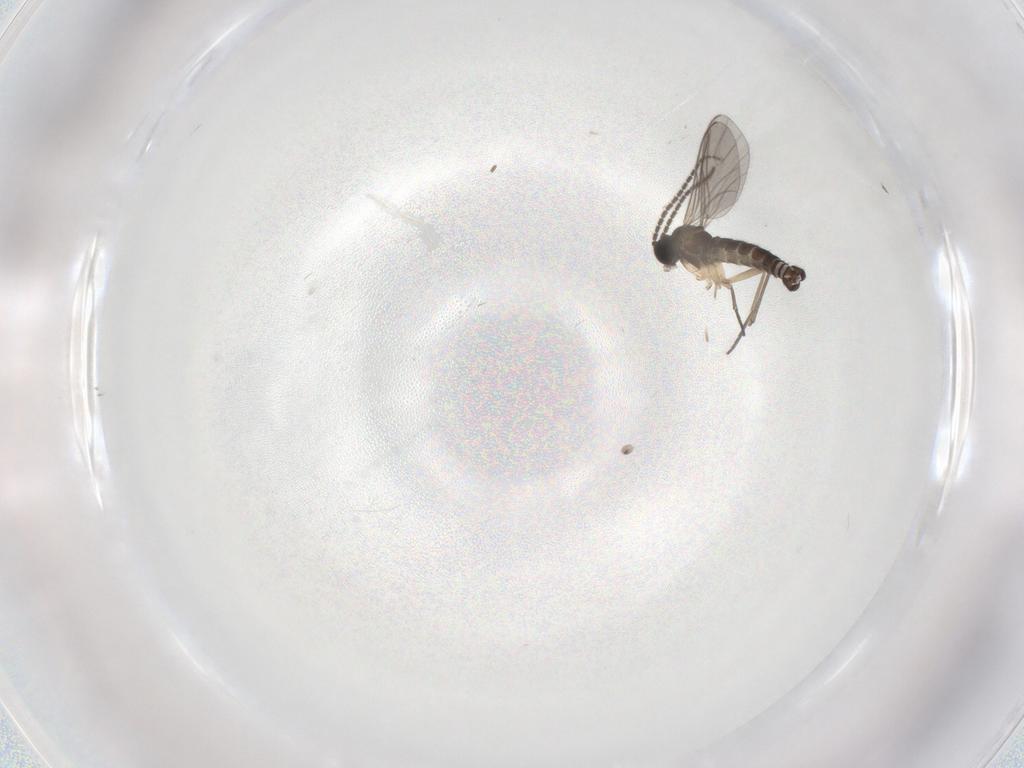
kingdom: Animalia
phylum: Arthropoda
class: Insecta
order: Diptera
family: Sciaridae
